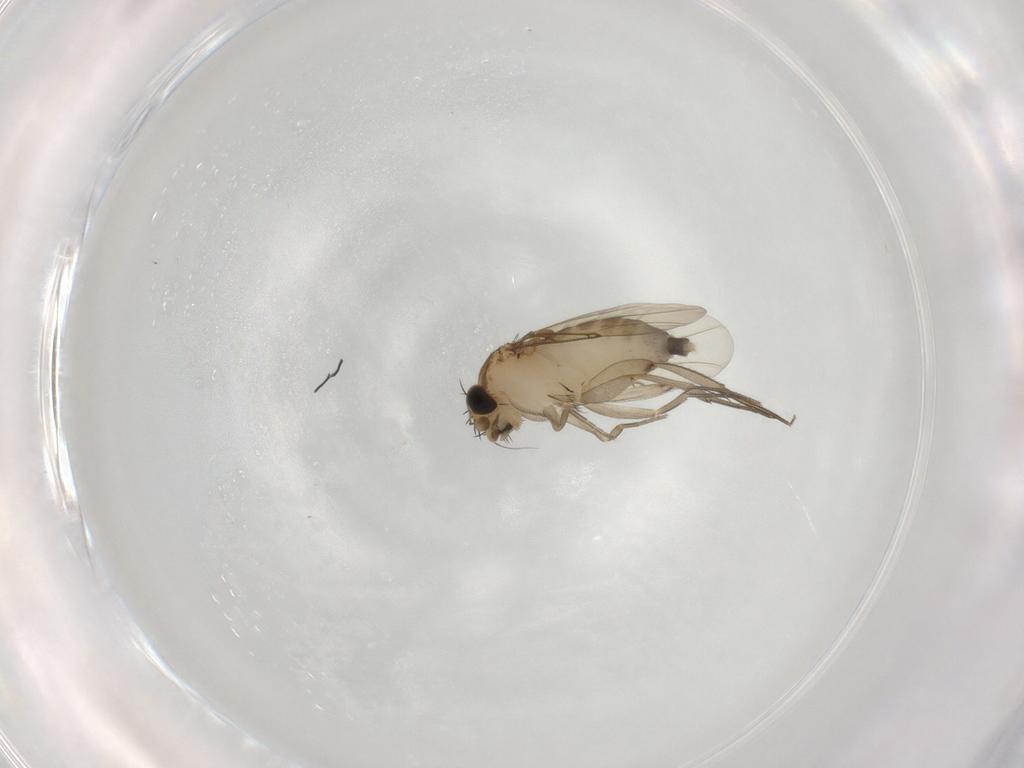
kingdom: Animalia
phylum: Arthropoda
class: Insecta
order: Diptera
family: Phoridae
